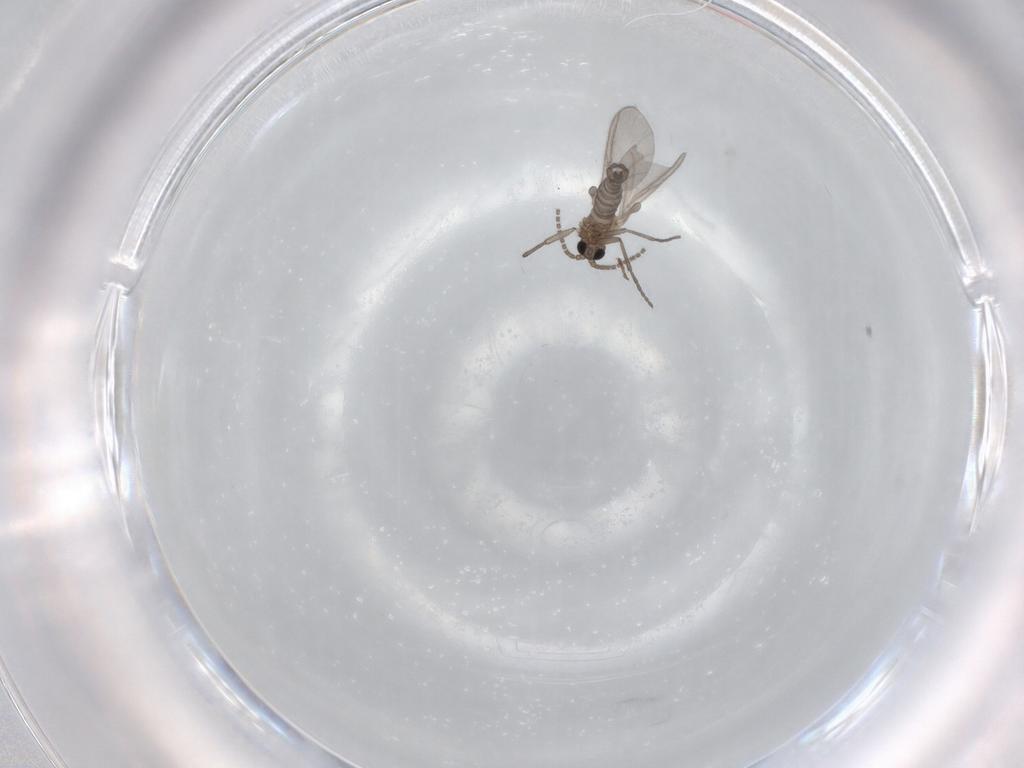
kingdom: Animalia
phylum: Arthropoda
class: Insecta
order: Diptera
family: Sciaridae
